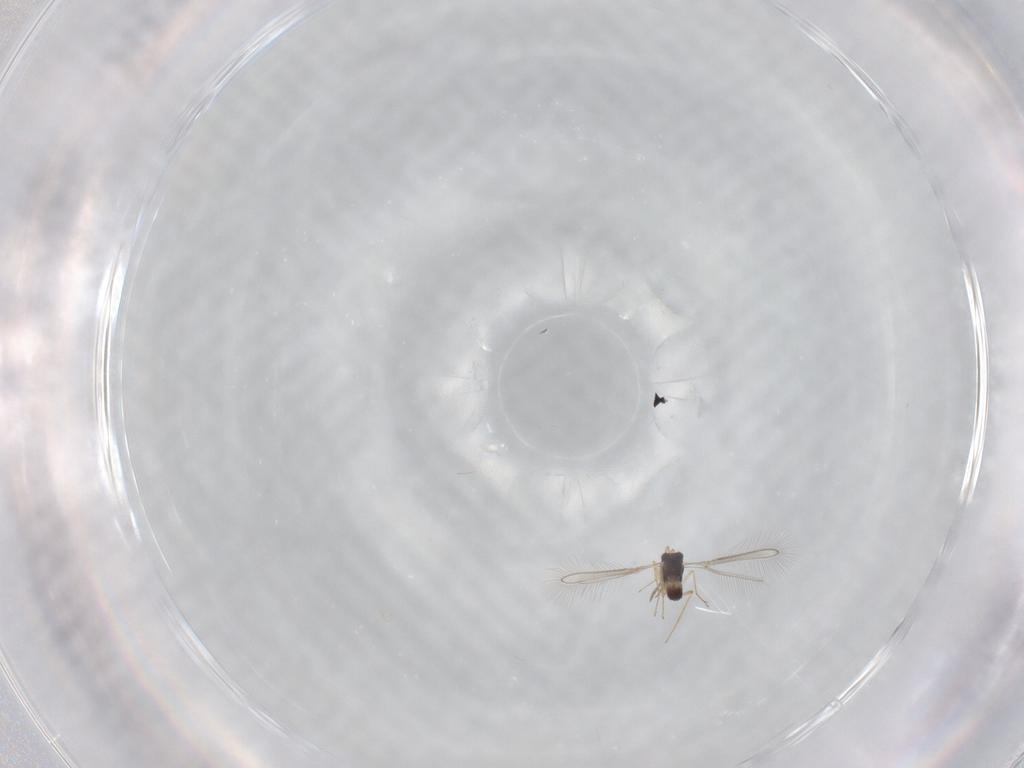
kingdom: Animalia
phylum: Arthropoda
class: Insecta
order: Hymenoptera
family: Mymaridae
